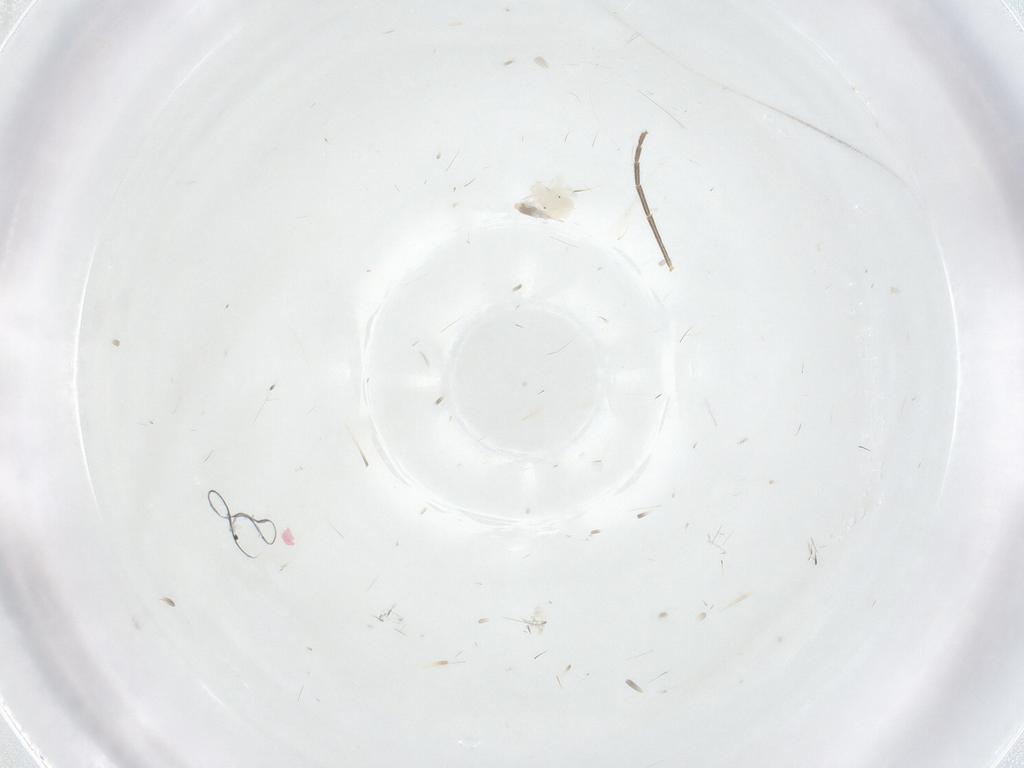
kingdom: Animalia
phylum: Arthropoda
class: Arachnida
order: Trombidiformes
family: Anystidae
